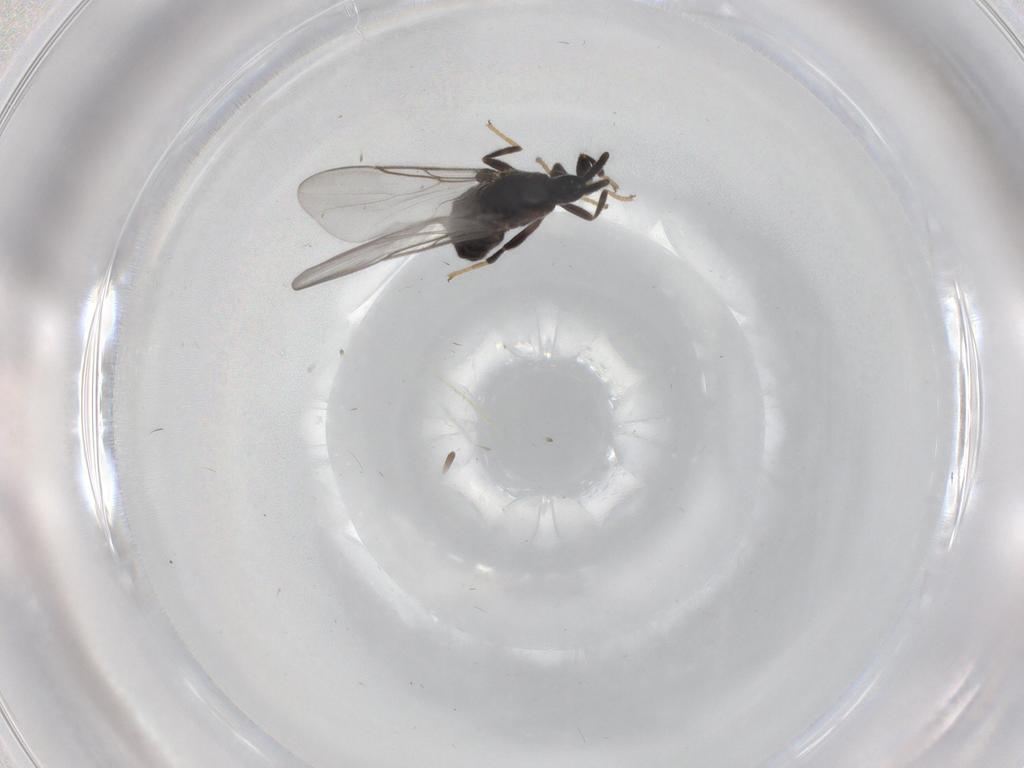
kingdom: Animalia
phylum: Arthropoda
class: Insecta
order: Diptera
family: Scatopsidae
